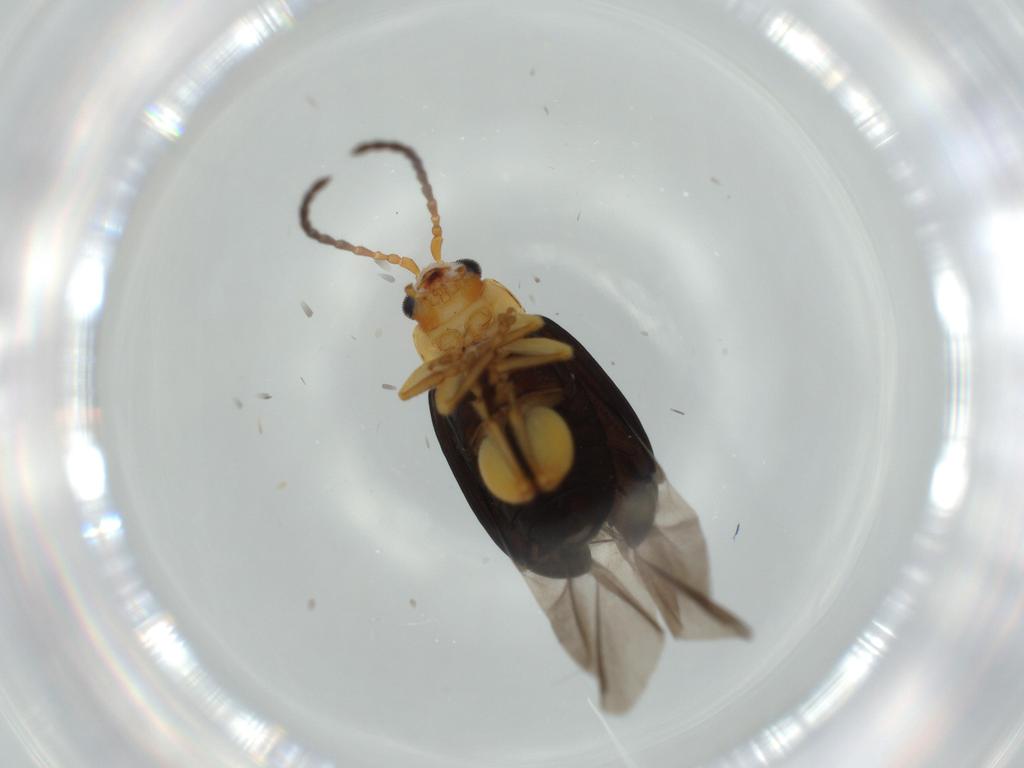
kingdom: Animalia
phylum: Arthropoda
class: Insecta
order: Coleoptera
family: Chrysomelidae
